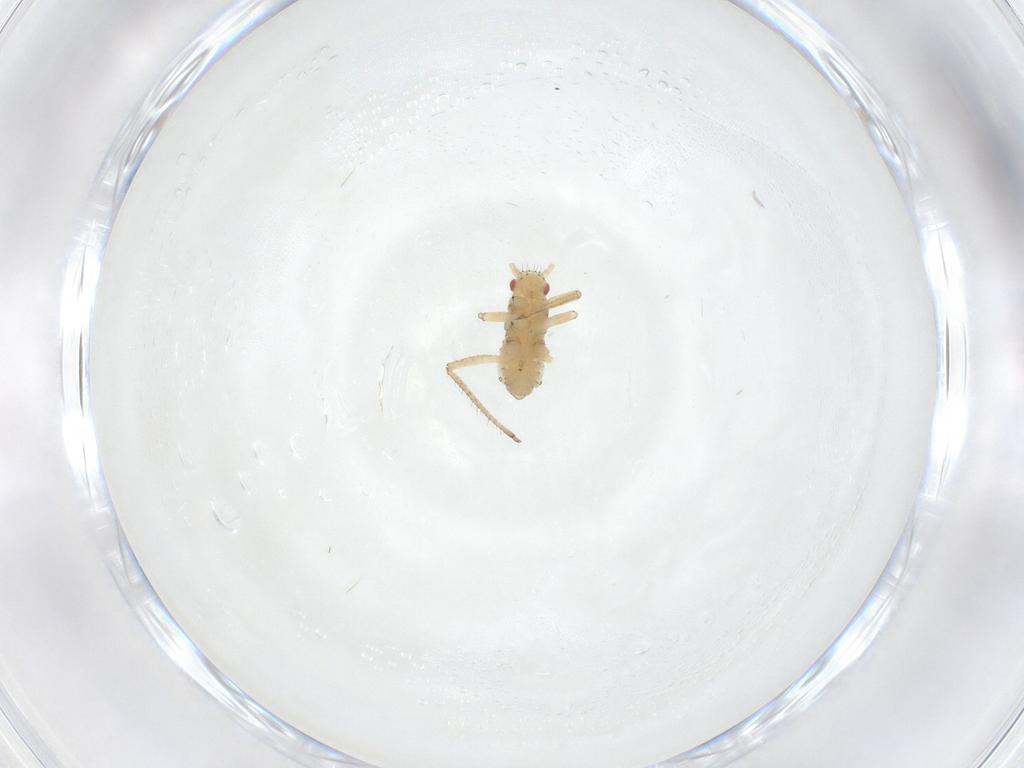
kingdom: Animalia
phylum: Arthropoda
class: Insecta
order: Hemiptera
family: Aphididae
